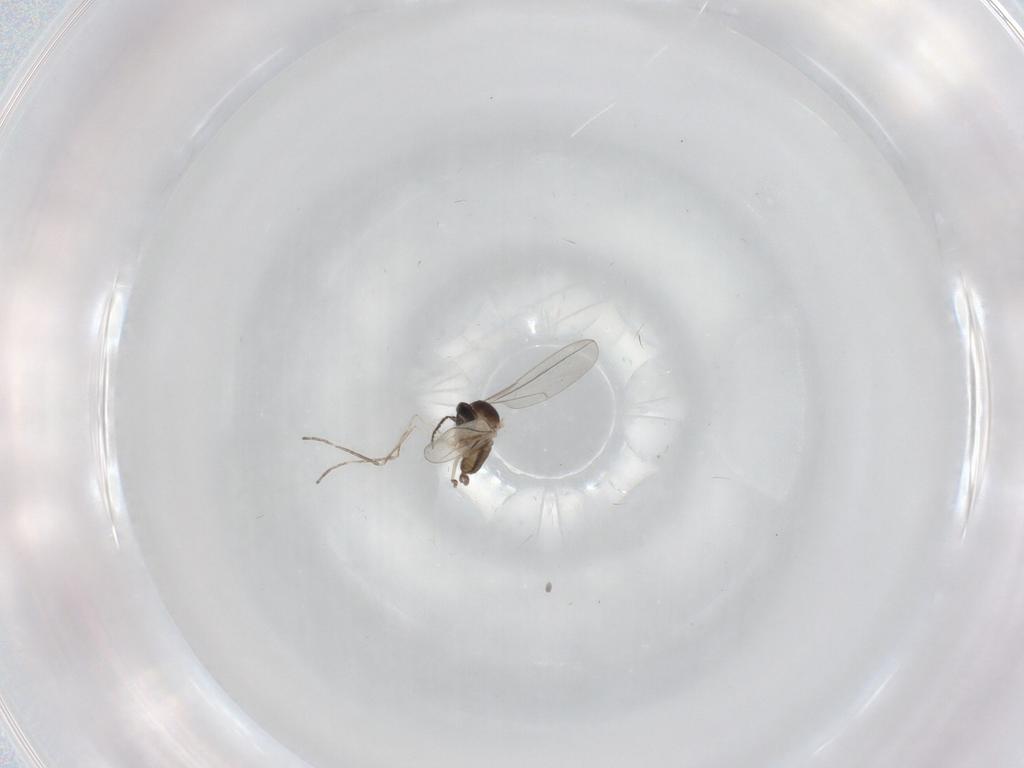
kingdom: Animalia
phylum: Arthropoda
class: Insecta
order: Diptera
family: Cecidomyiidae
